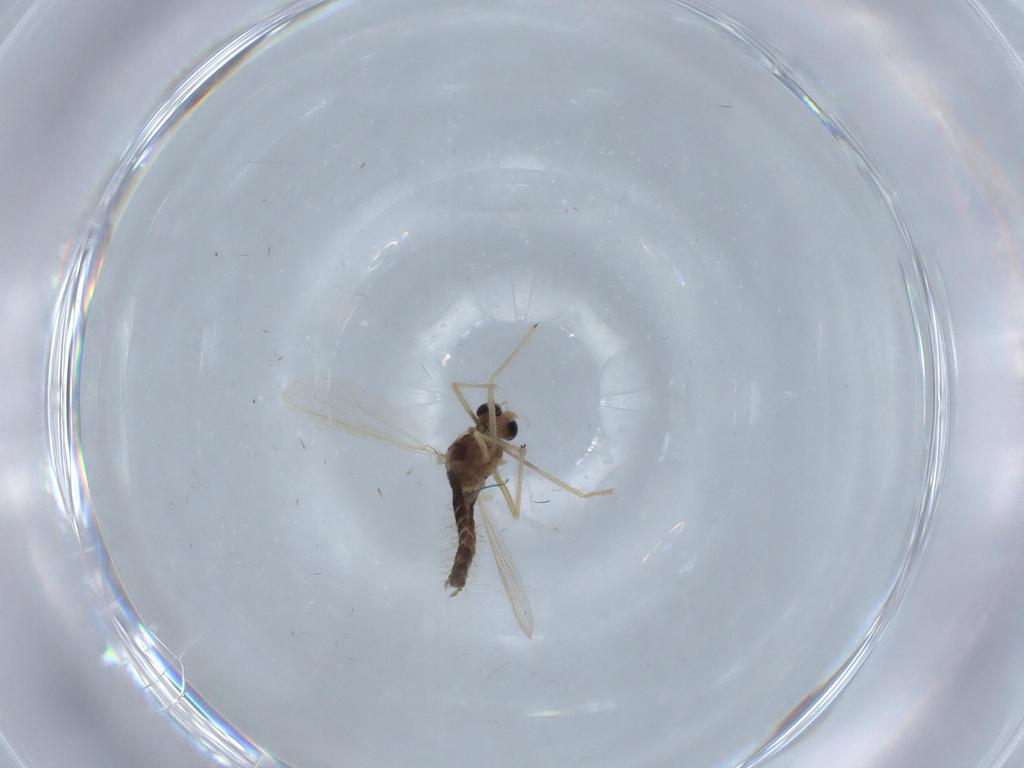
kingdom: Animalia
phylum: Arthropoda
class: Insecta
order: Diptera
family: Chironomidae
